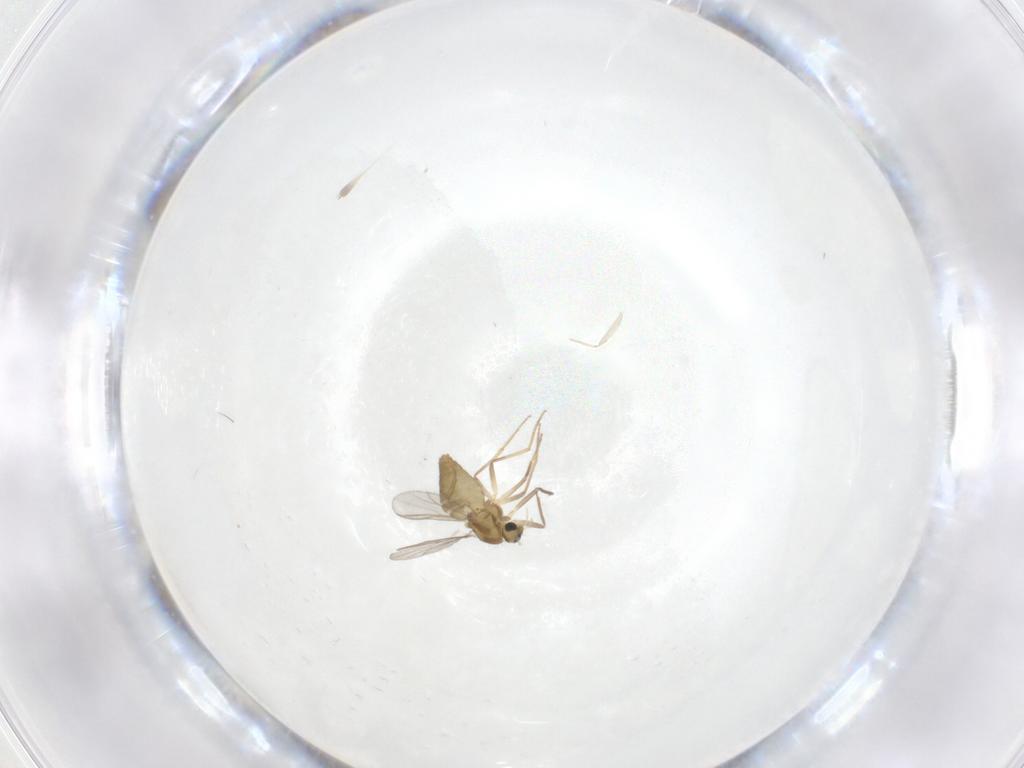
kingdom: Animalia
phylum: Arthropoda
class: Insecta
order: Diptera
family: Chironomidae
